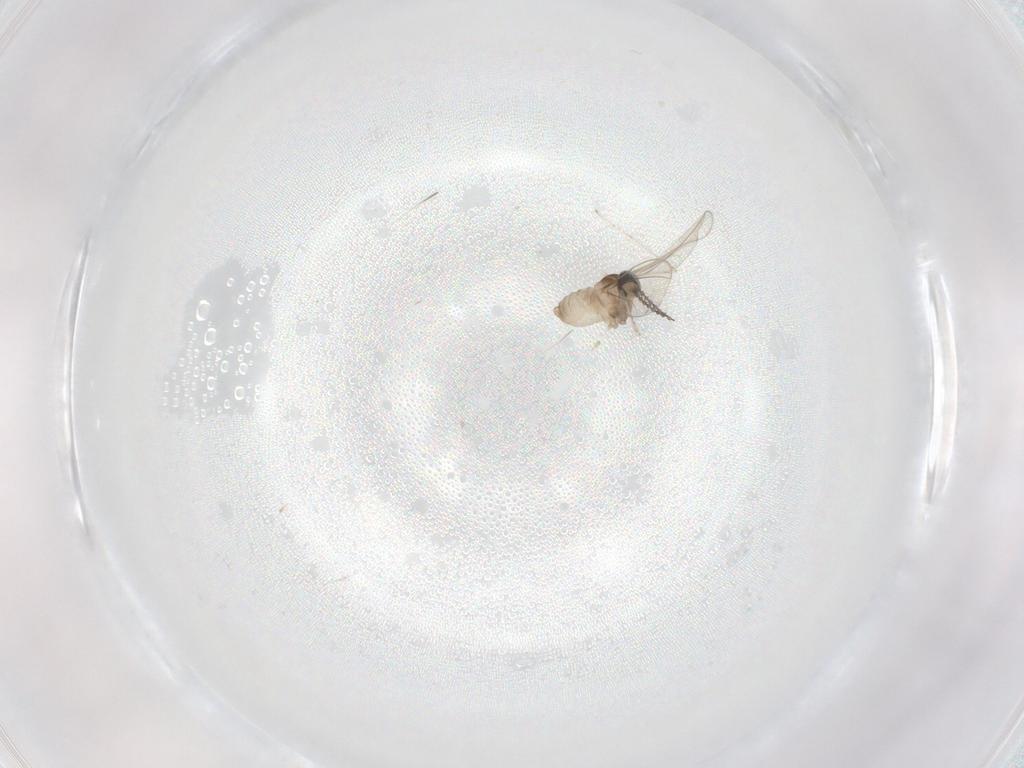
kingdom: Animalia
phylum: Arthropoda
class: Insecta
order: Diptera
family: Cecidomyiidae
